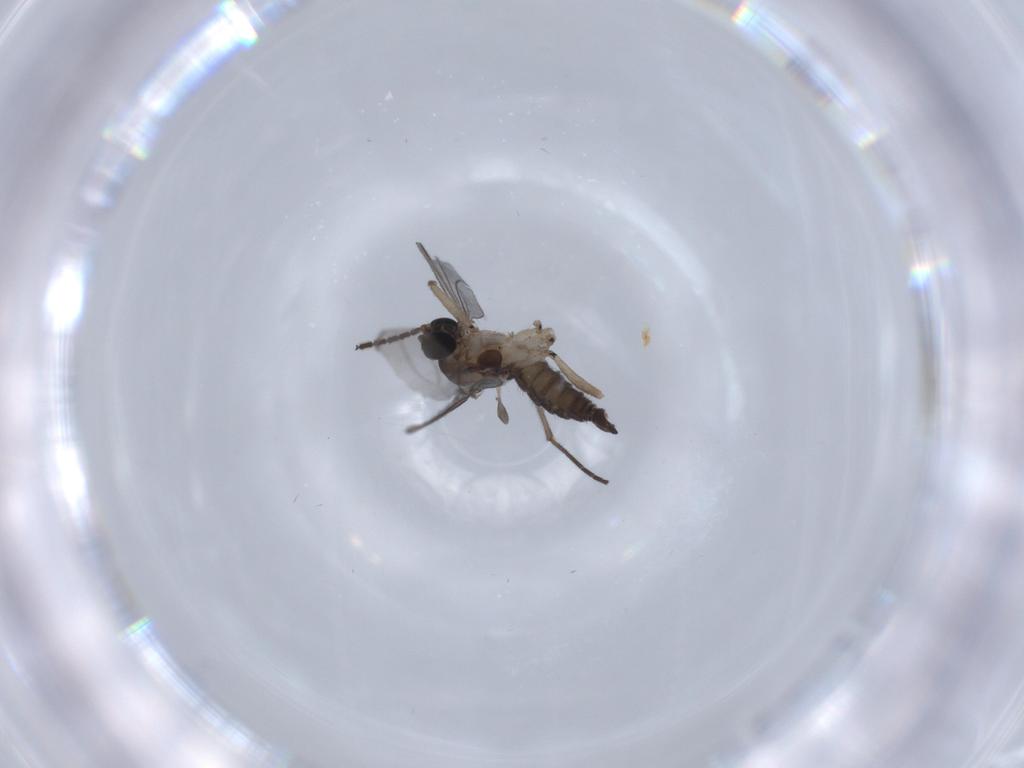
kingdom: Animalia
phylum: Arthropoda
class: Insecta
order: Diptera
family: Sciaridae
